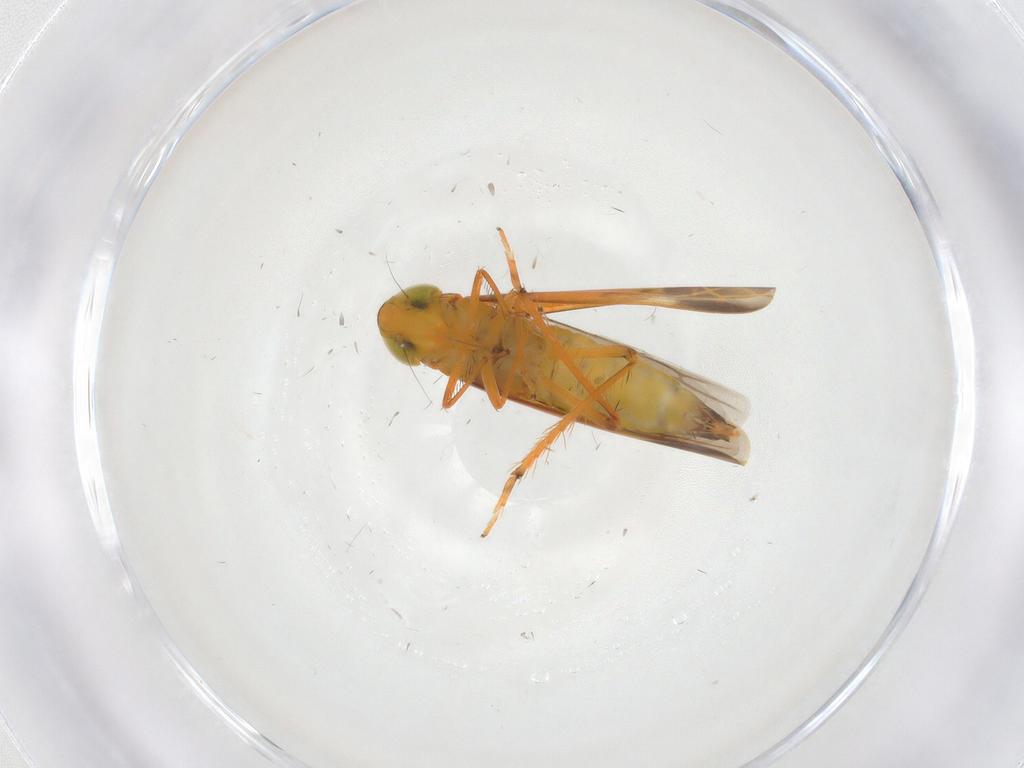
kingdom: Animalia
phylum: Arthropoda
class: Insecta
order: Hemiptera
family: Cicadellidae
